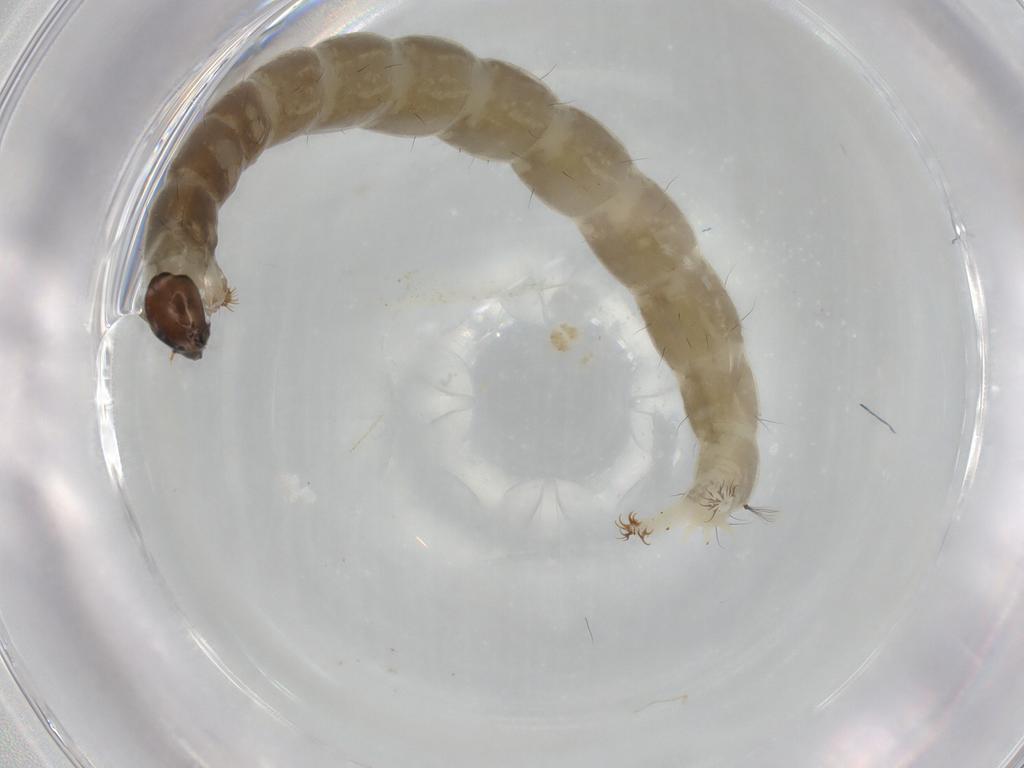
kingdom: Animalia
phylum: Arthropoda
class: Insecta
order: Diptera
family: Chironomidae
